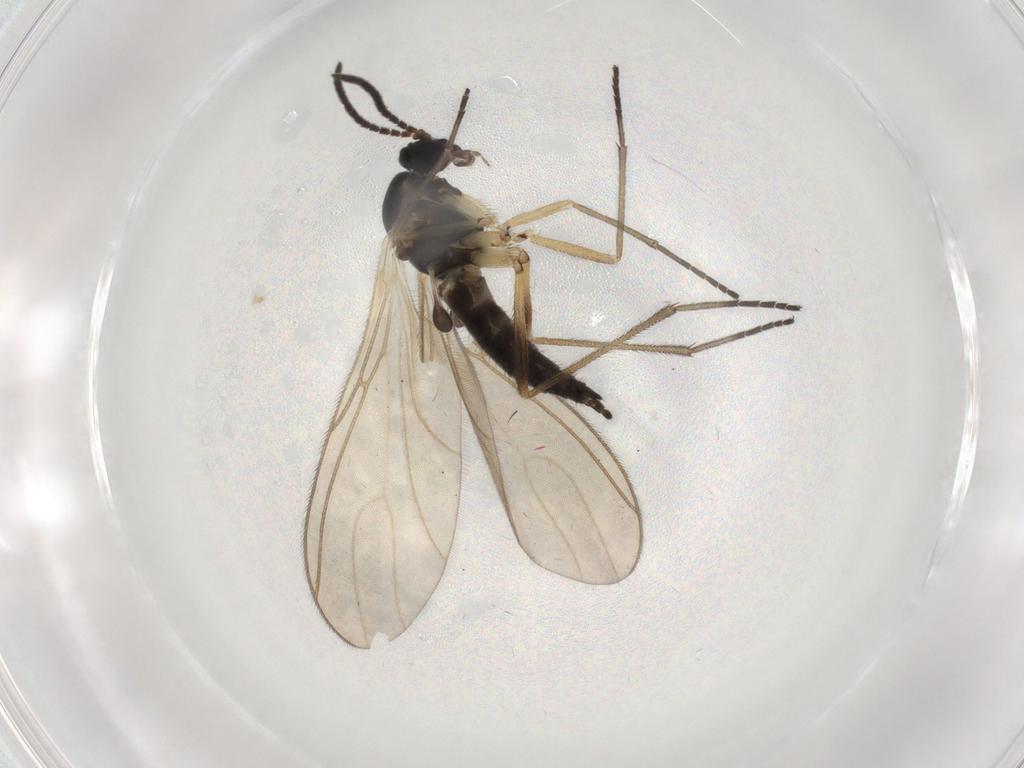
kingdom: Animalia
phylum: Arthropoda
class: Insecta
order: Diptera
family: Sciaridae
